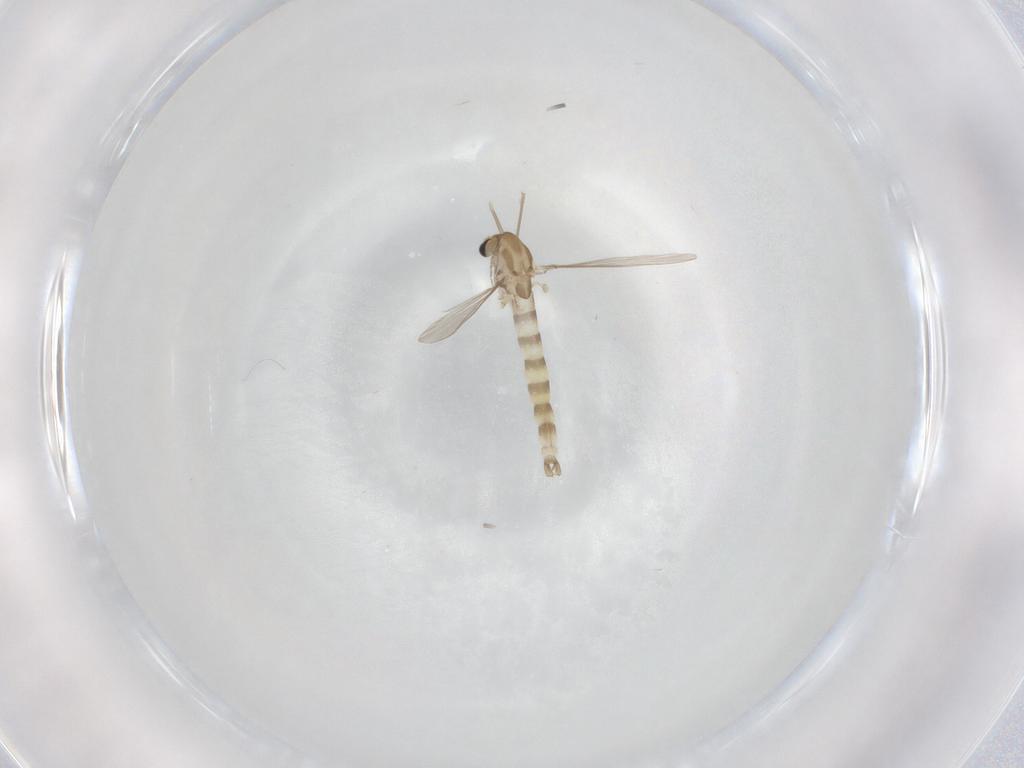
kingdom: Animalia
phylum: Arthropoda
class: Insecta
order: Diptera
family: Chironomidae
